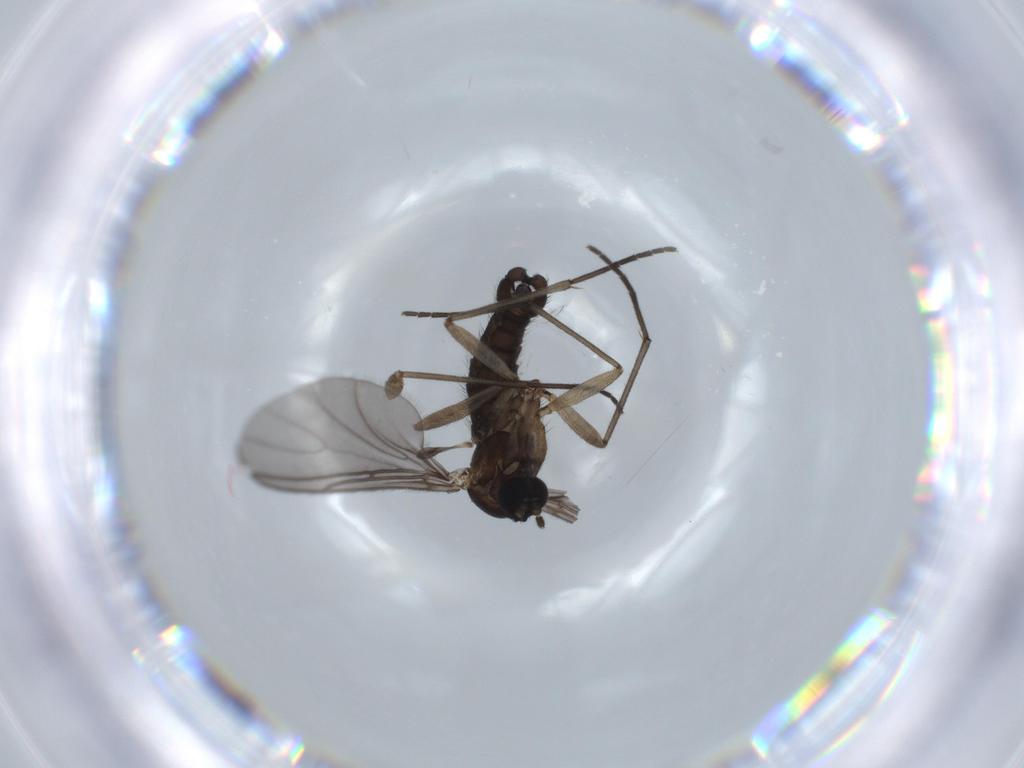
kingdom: Animalia
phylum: Arthropoda
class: Insecta
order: Diptera
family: Sciaridae
